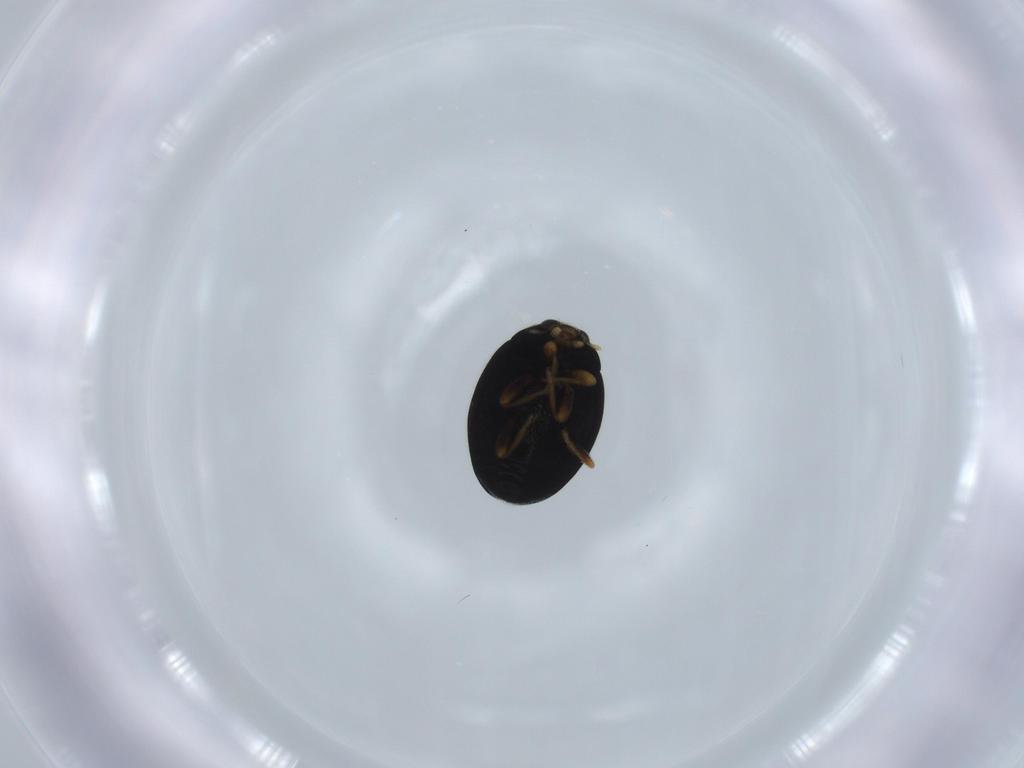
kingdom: Animalia
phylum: Arthropoda
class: Insecta
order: Coleoptera
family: Coccinellidae
